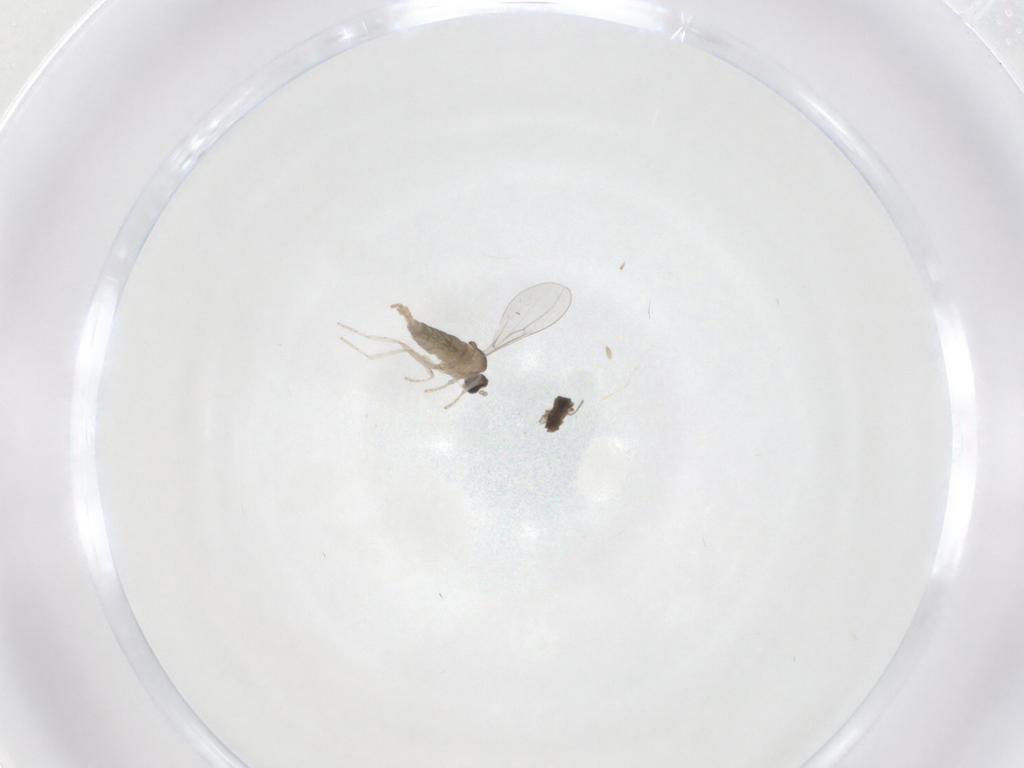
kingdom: Animalia
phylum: Arthropoda
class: Insecta
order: Diptera
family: Cecidomyiidae
